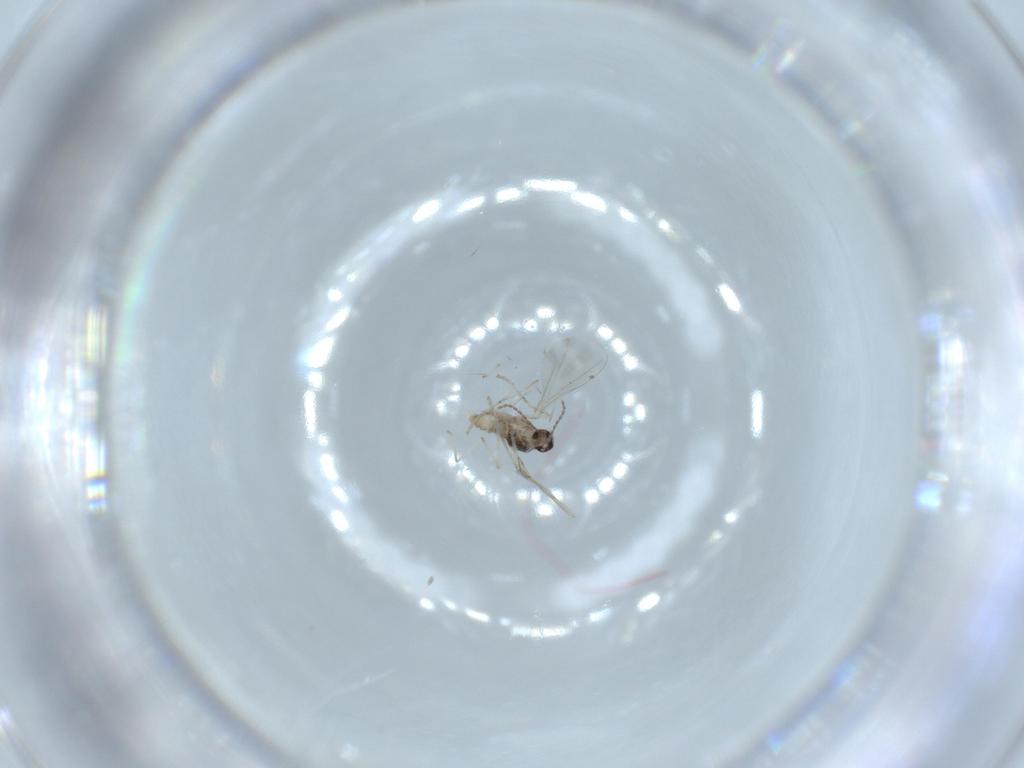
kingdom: Animalia
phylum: Arthropoda
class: Insecta
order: Diptera
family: Cecidomyiidae
